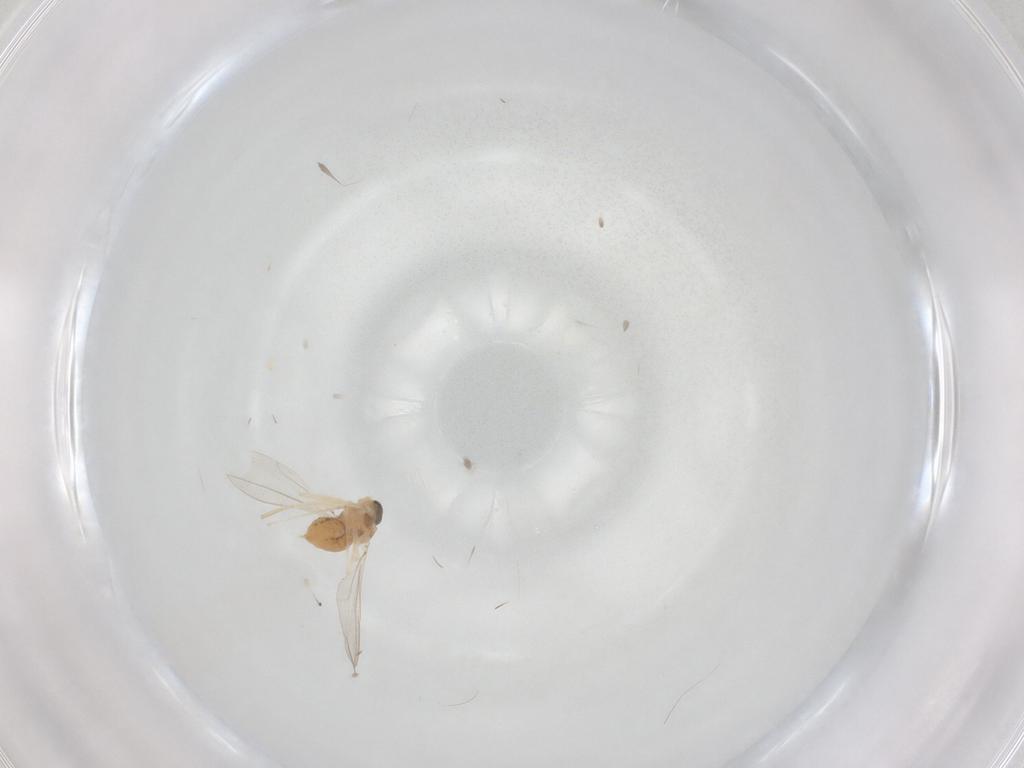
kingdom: Animalia
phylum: Arthropoda
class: Insecta
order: Diptera
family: Cecidomyiidae
